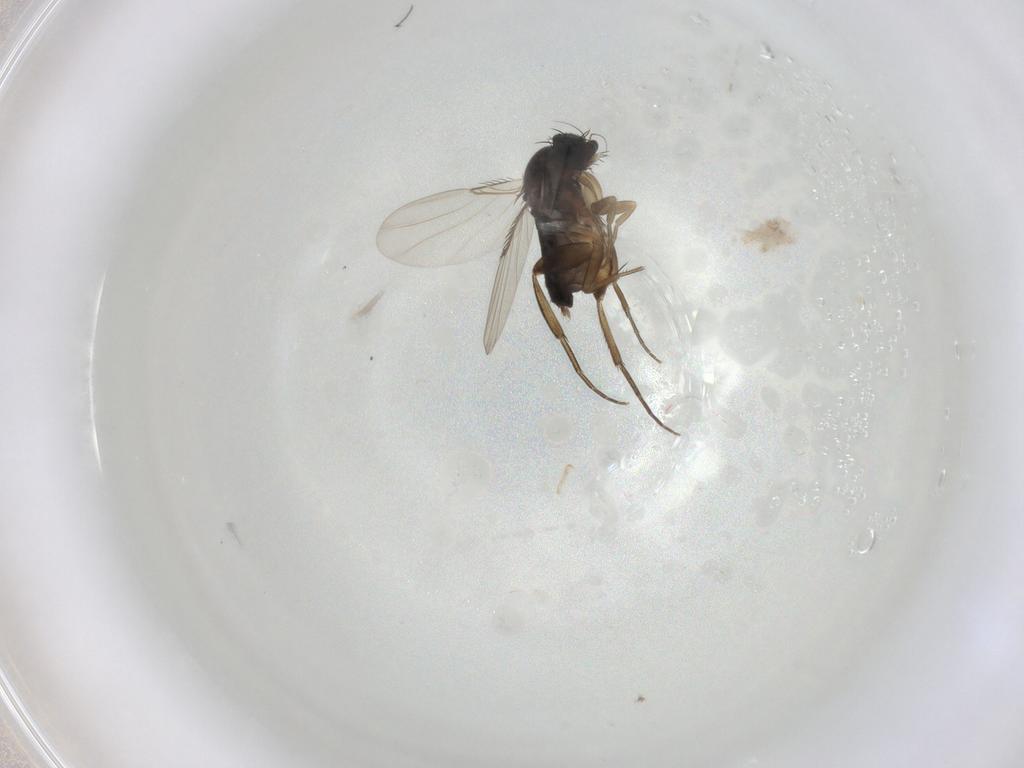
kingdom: Animalia
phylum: Arthropoda
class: Insecta
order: Diptera
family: Phoridae
